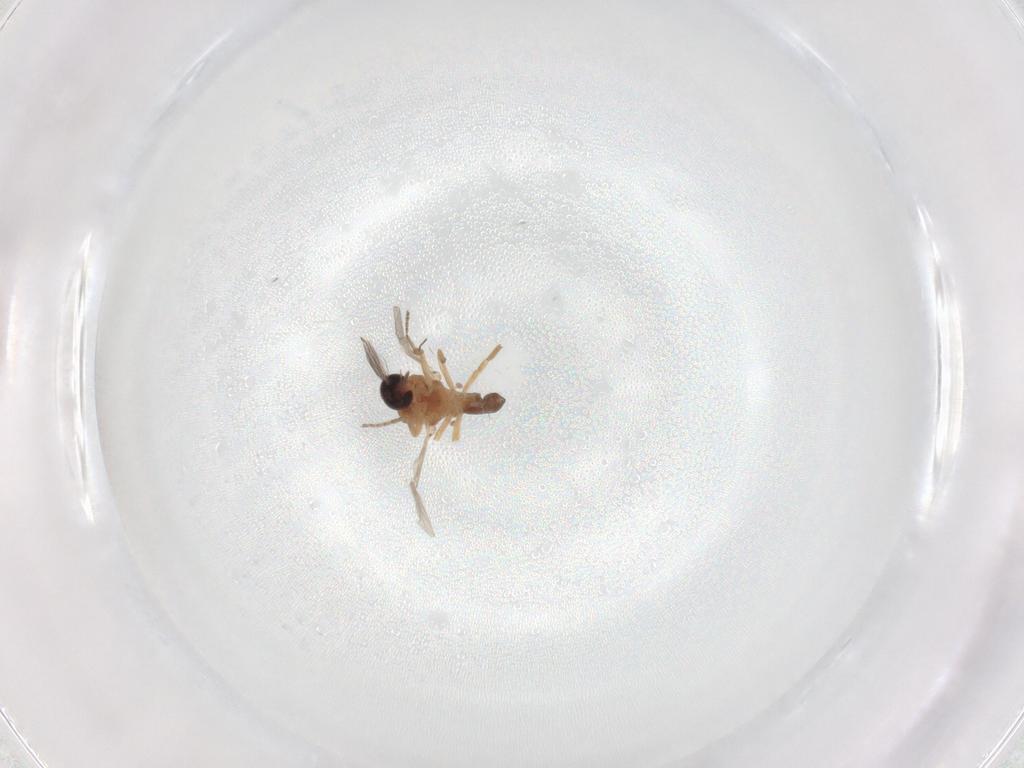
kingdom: Animalia
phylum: Arthropoda
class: Insecta
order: Diptera
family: Ceratopogonidae
